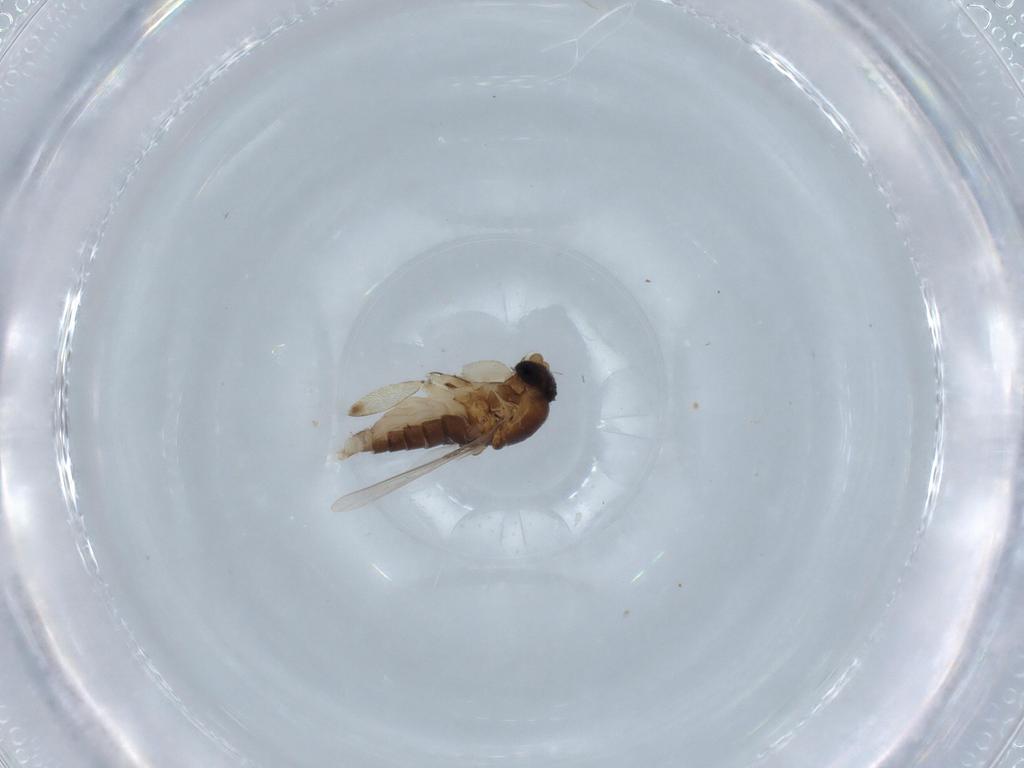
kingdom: Animalia
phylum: Arthropoda
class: Insecta
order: Diptera
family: Phoridae
